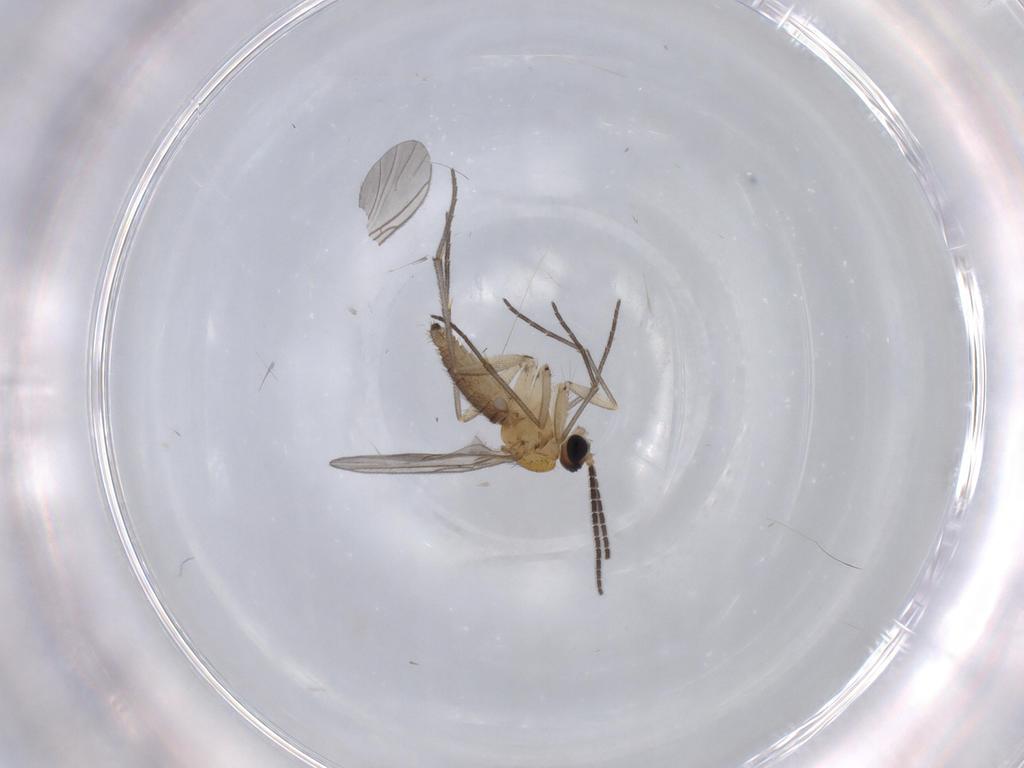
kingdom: Animalia
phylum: Arthropoda
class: Insecta
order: Diptera
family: Sciaridae
